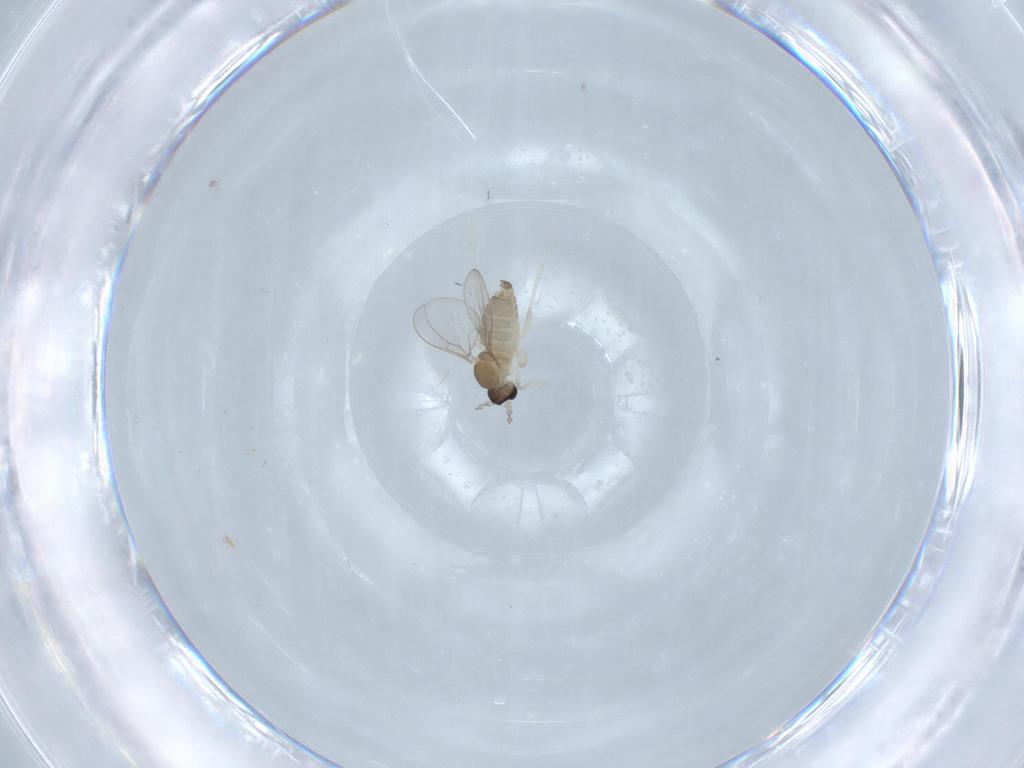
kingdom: Animalia
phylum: Arthropoda
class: Insecta
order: Diptera
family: Cecidomyiidae
